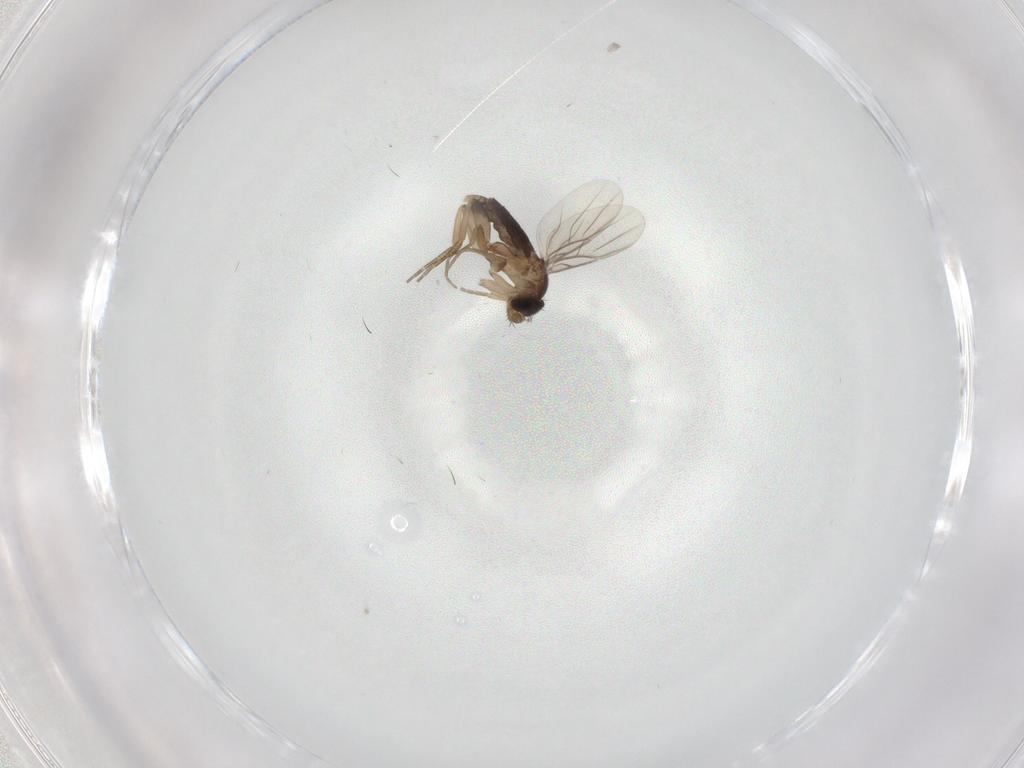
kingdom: Animalia
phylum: Arthropoda
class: Insecta
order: Diptera
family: Phoridae
